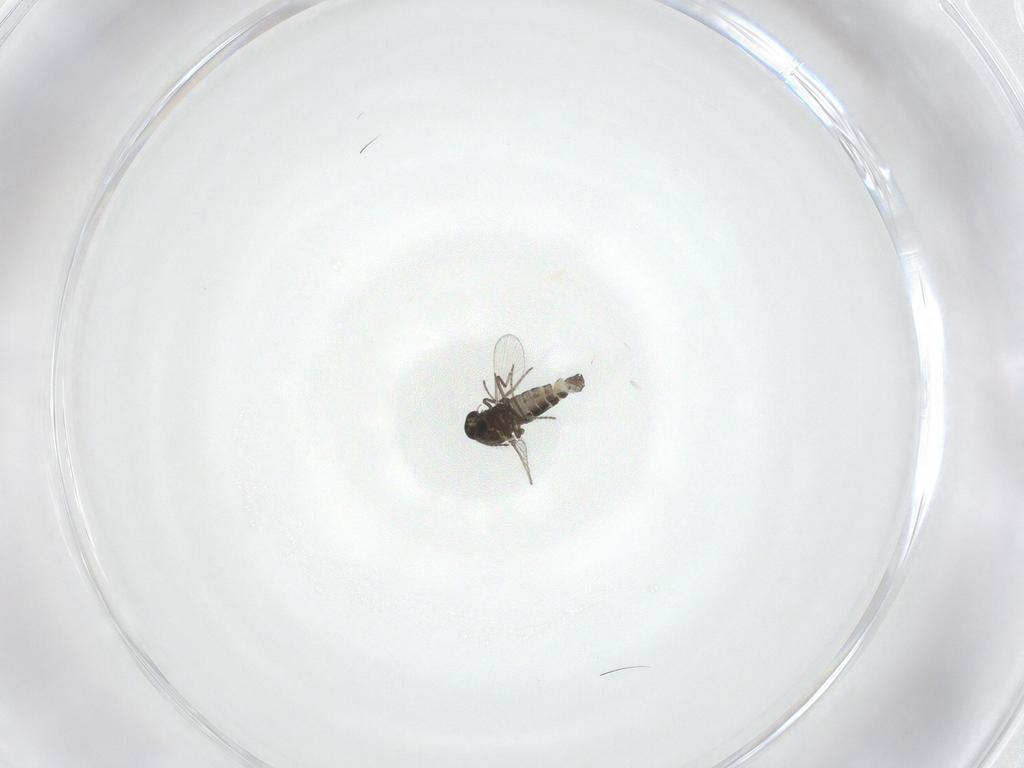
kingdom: Animalia
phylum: Arthropoda
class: Insecta
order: Diptera
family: Ceratopogonidae
